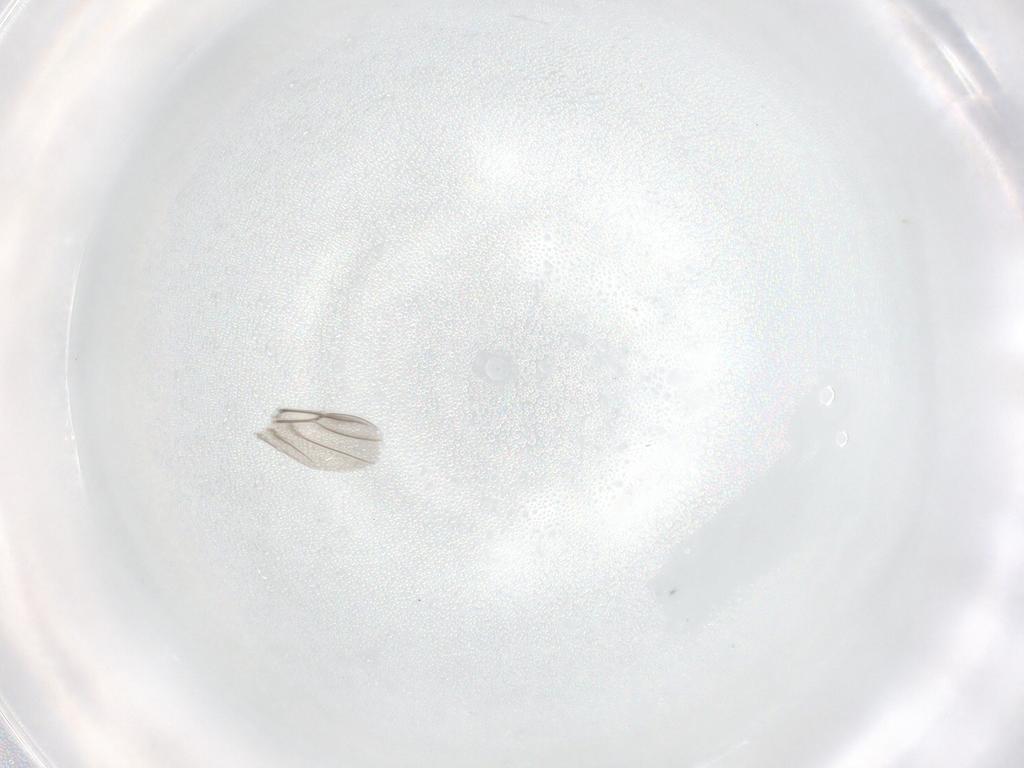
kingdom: Animalia
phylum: Arthropoda
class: Insecta
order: Diptera
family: Phoridae
